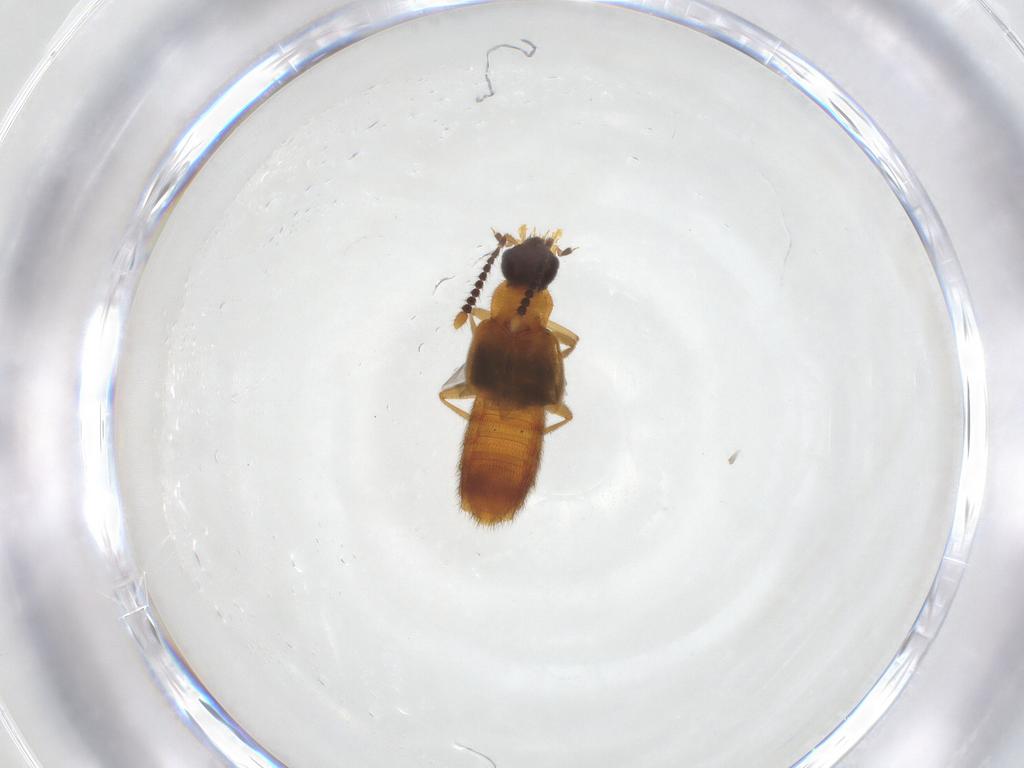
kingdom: Animalia
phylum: Arthropoda
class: Insecta
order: Coleoptera
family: Staphylinidae
